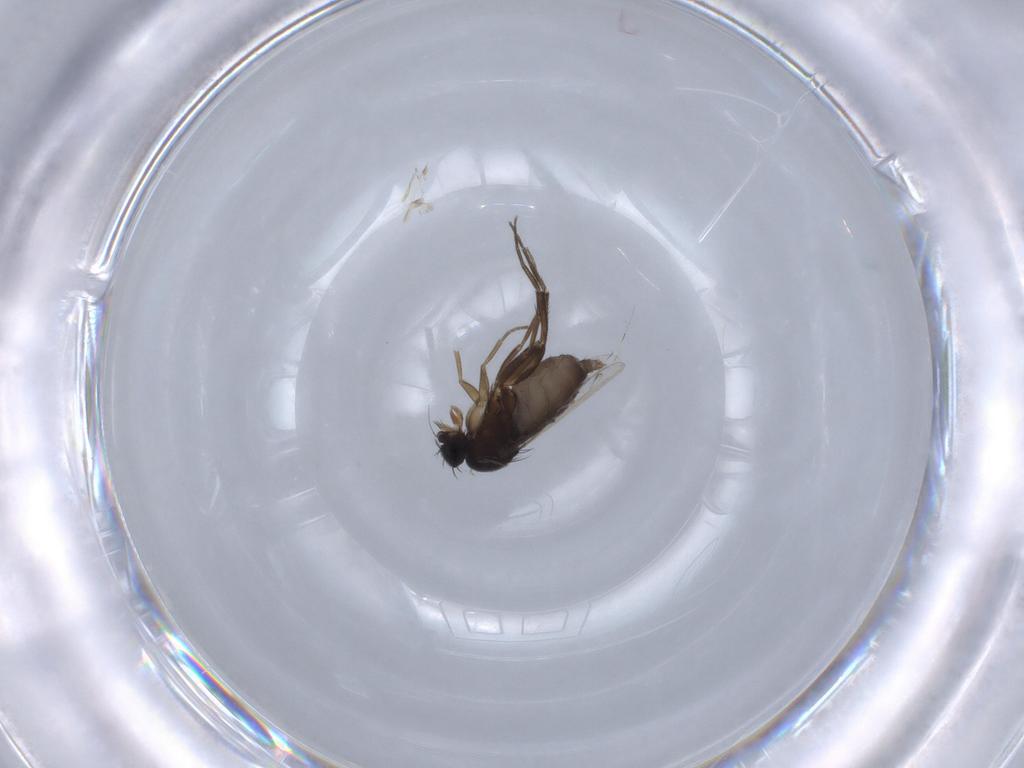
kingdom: Animalia
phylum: Arthropoda
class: Insecta
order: Diptera
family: Phoridae
